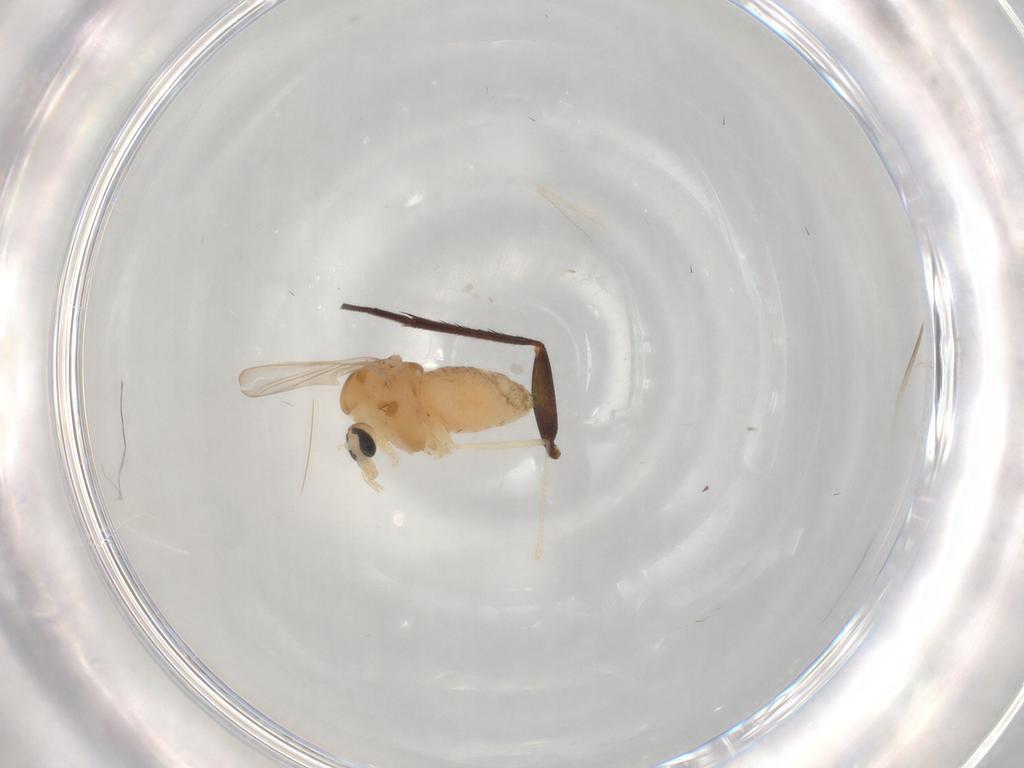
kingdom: Animalia
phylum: Arthropoda
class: Insecta
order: Diptera
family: Dolichopodidae
